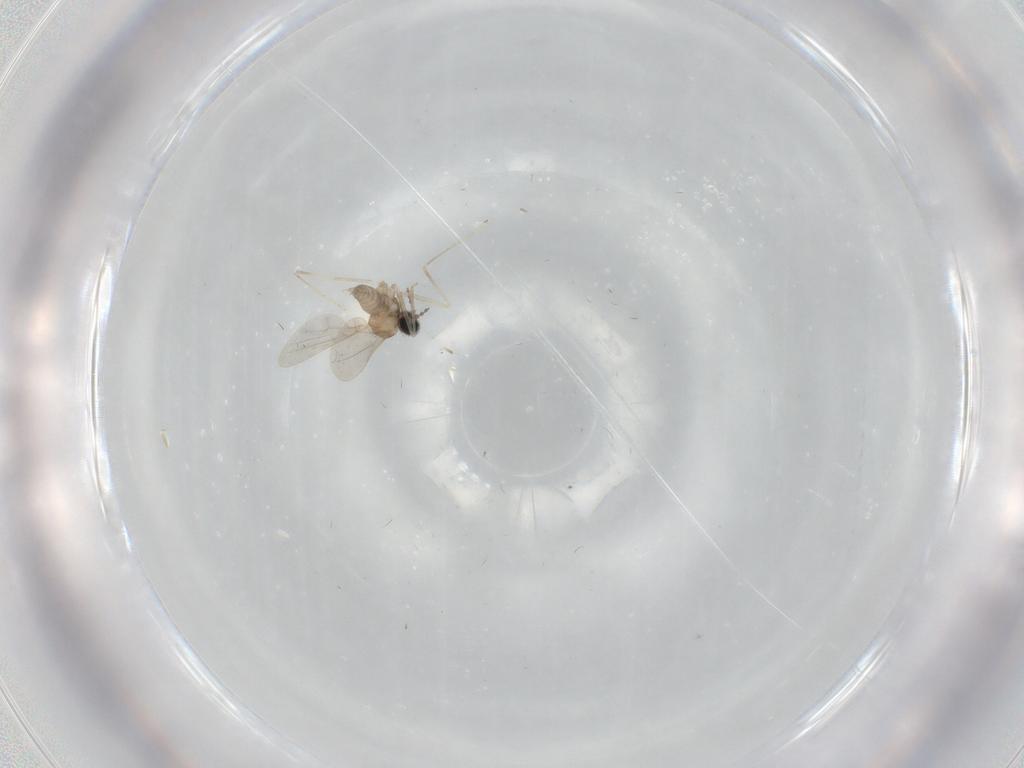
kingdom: Animalia
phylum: Arthropoda
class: Insecta
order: Diptera
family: Cecidomyiidae
